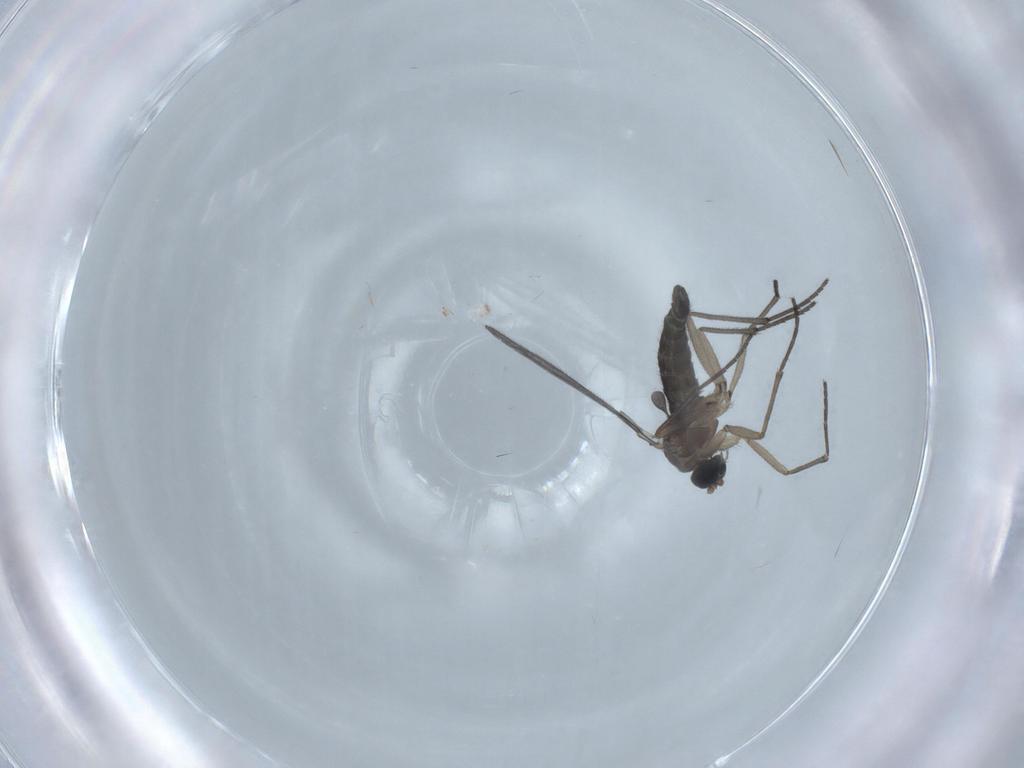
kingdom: Animalia
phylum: Arthropoda
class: Insecta
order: Diptera
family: Sciaridae
